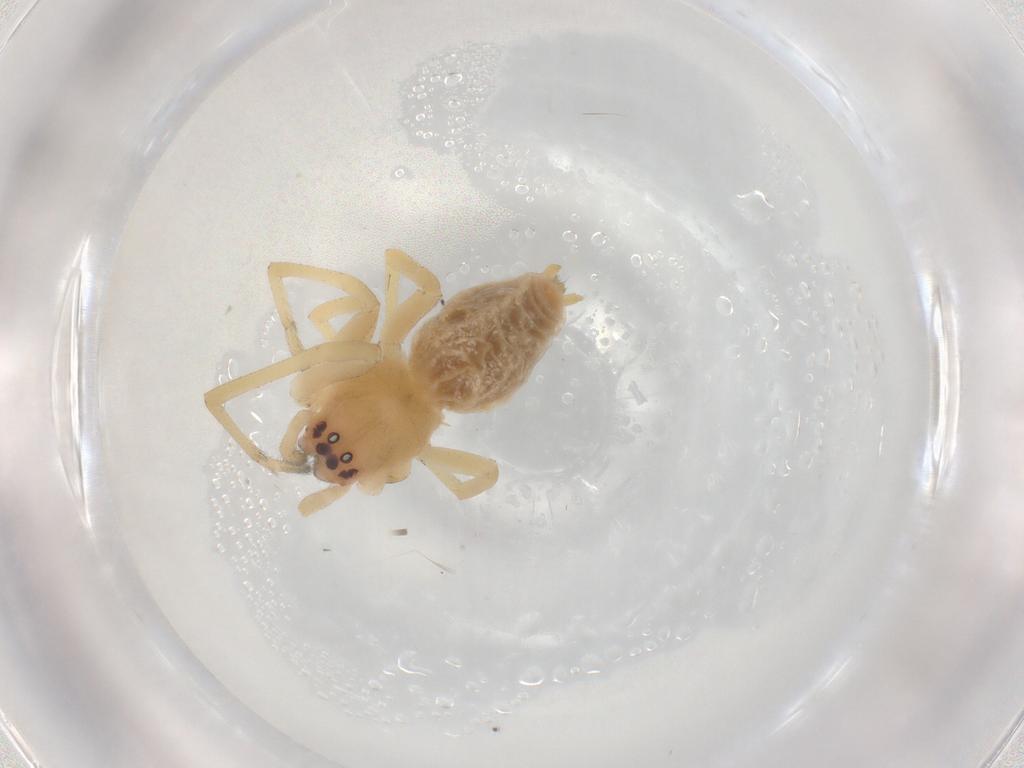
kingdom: Animalia
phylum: Arthropoda
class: Arachnida
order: Araneae
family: Cheiracanthiidae
